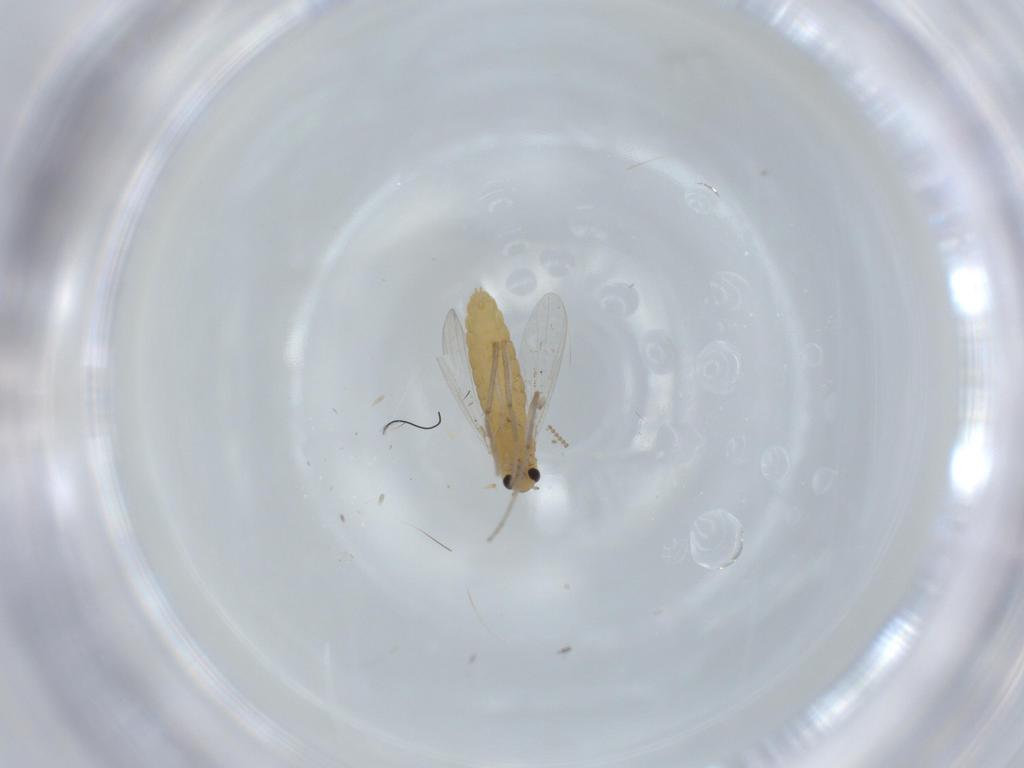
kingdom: Animalia
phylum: Arthropoda
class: Insecta
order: Diptera
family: Chironomidae
